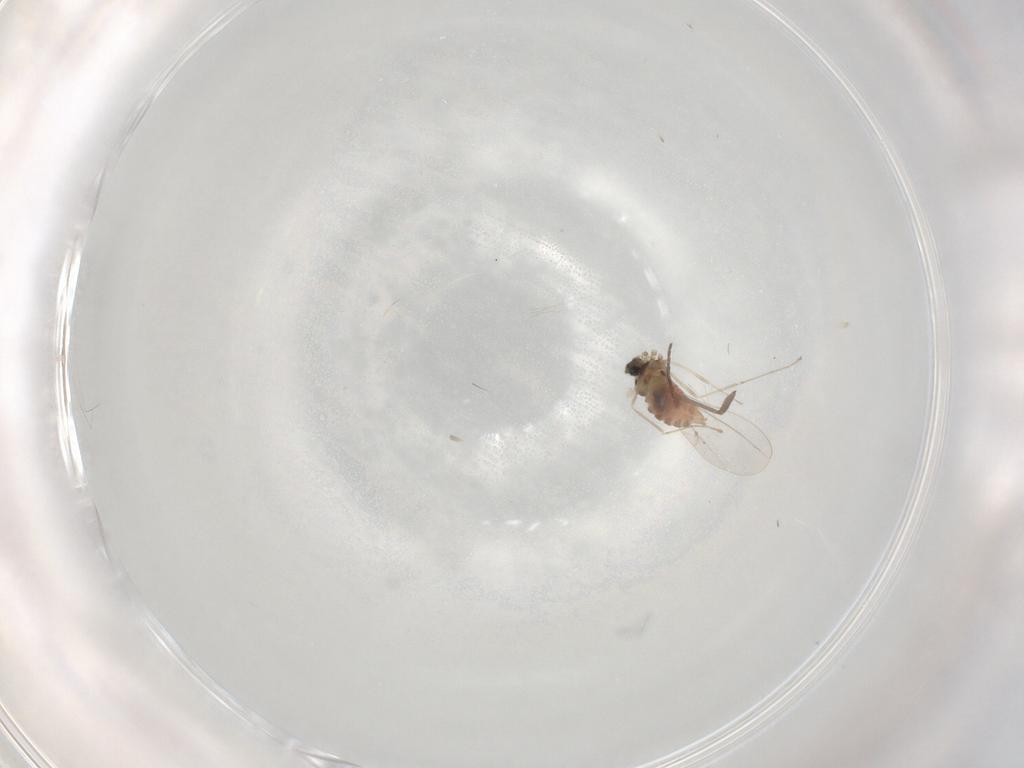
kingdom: Animalia
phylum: Arthropoda
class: Insecta
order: Diptera
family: Cecidomyiidae
